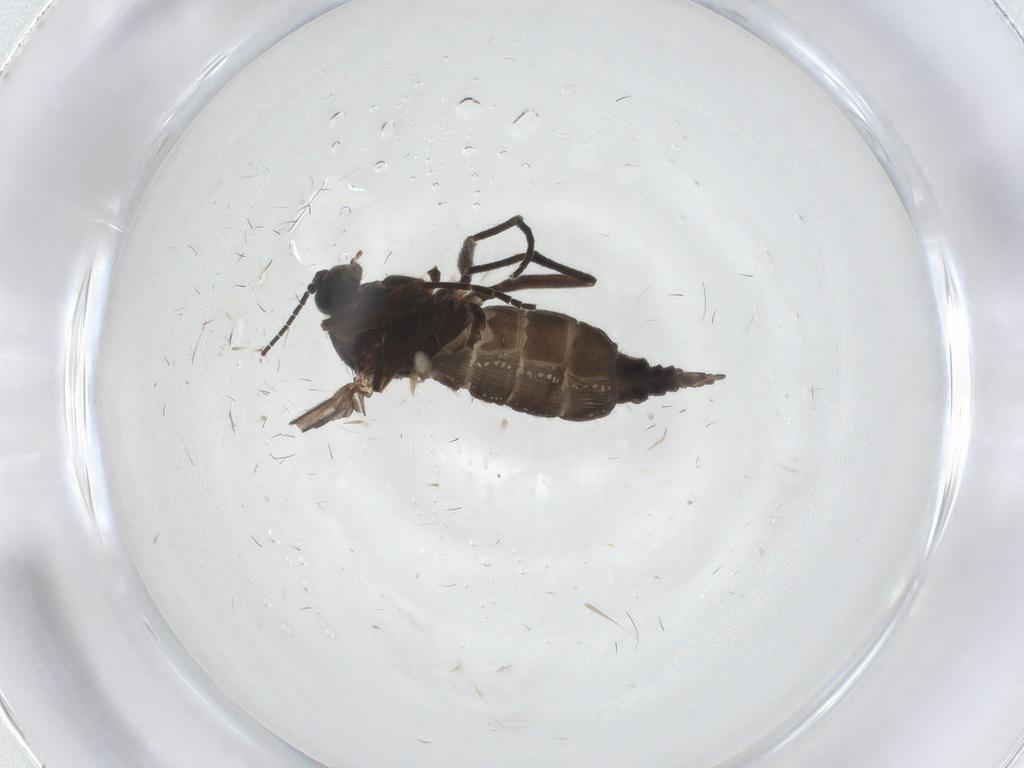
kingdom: Animalia
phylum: Arthropoda
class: Insecta
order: Diptera
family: Sciaridae
